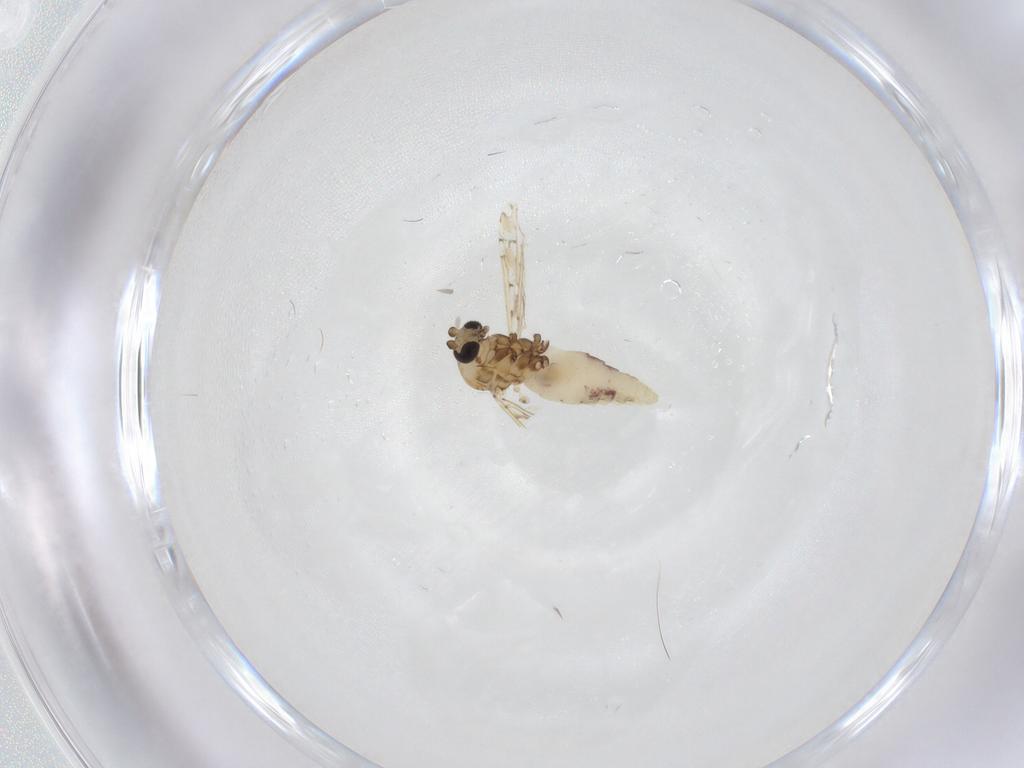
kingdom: Animalia
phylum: Arthropoda
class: Insecta
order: Diptera
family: Ceratopogonidae
